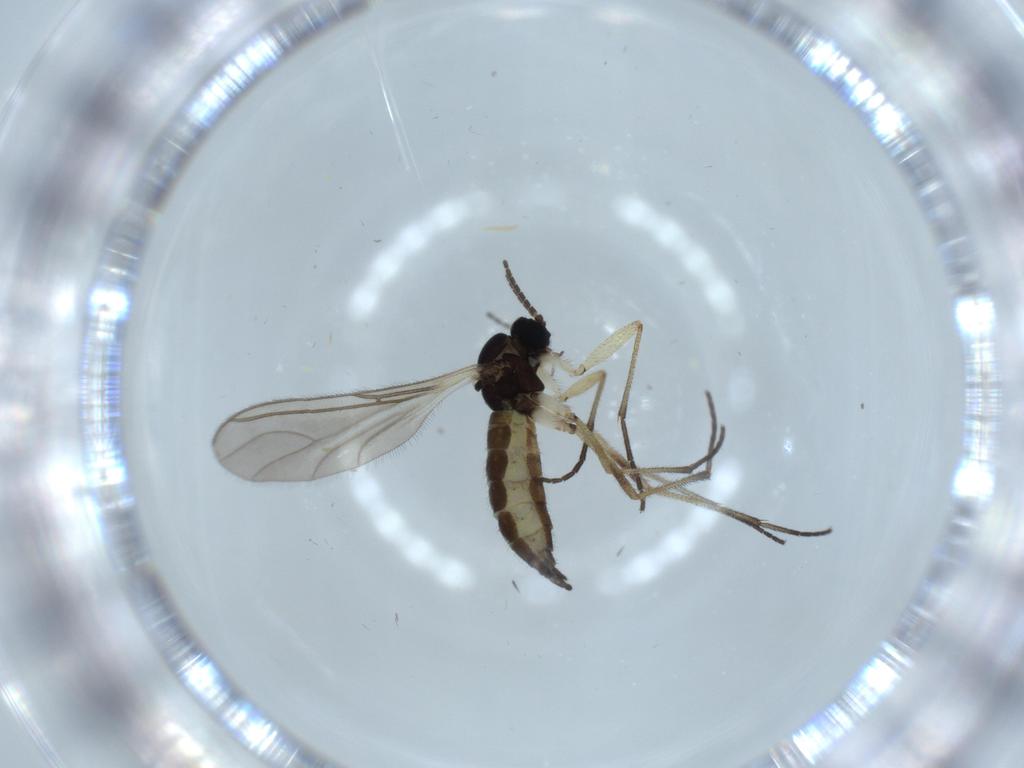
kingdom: Animalia
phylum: Arthropoda
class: Insecta
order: Diptera
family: Sciaridae
